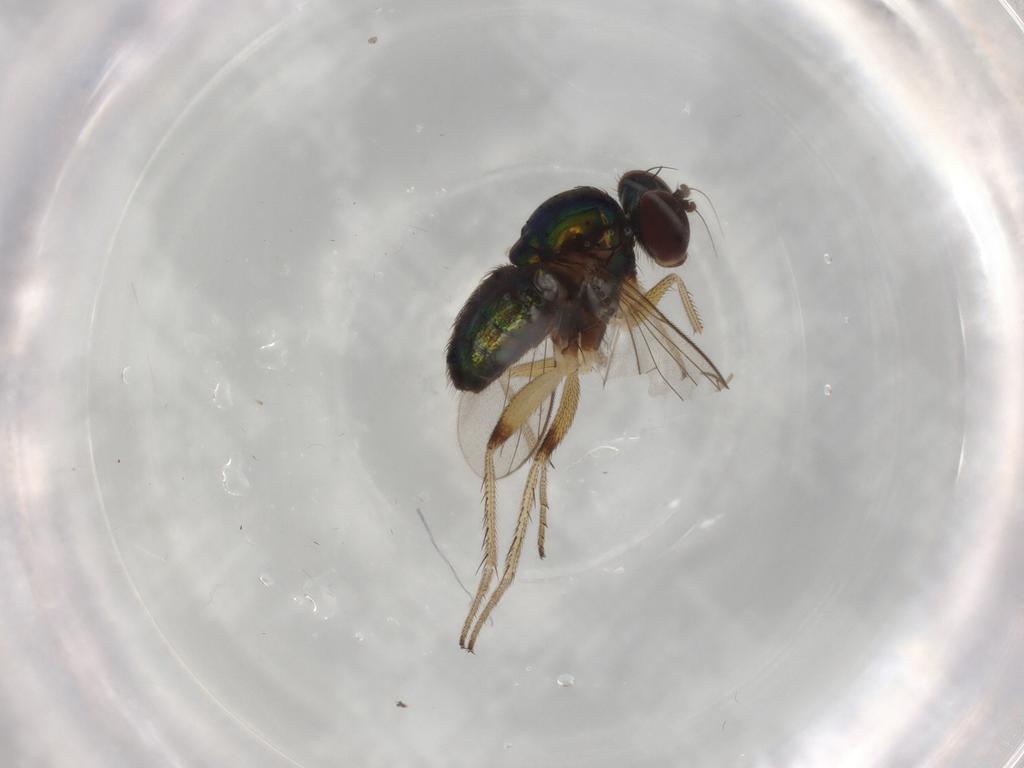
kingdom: Animalia
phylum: Arthropoda
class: Insecta
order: Diptera
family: Dolichopodidae
